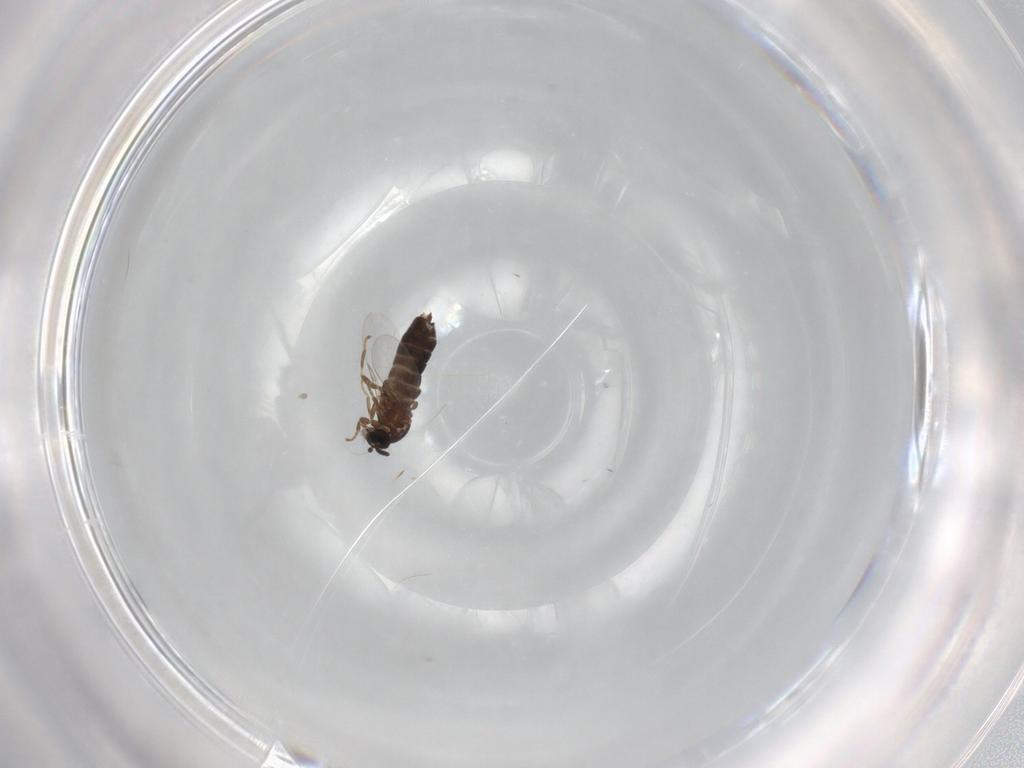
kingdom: Animalia
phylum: Arthropoda
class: Insecta
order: Diptera
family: Scatopsidae
